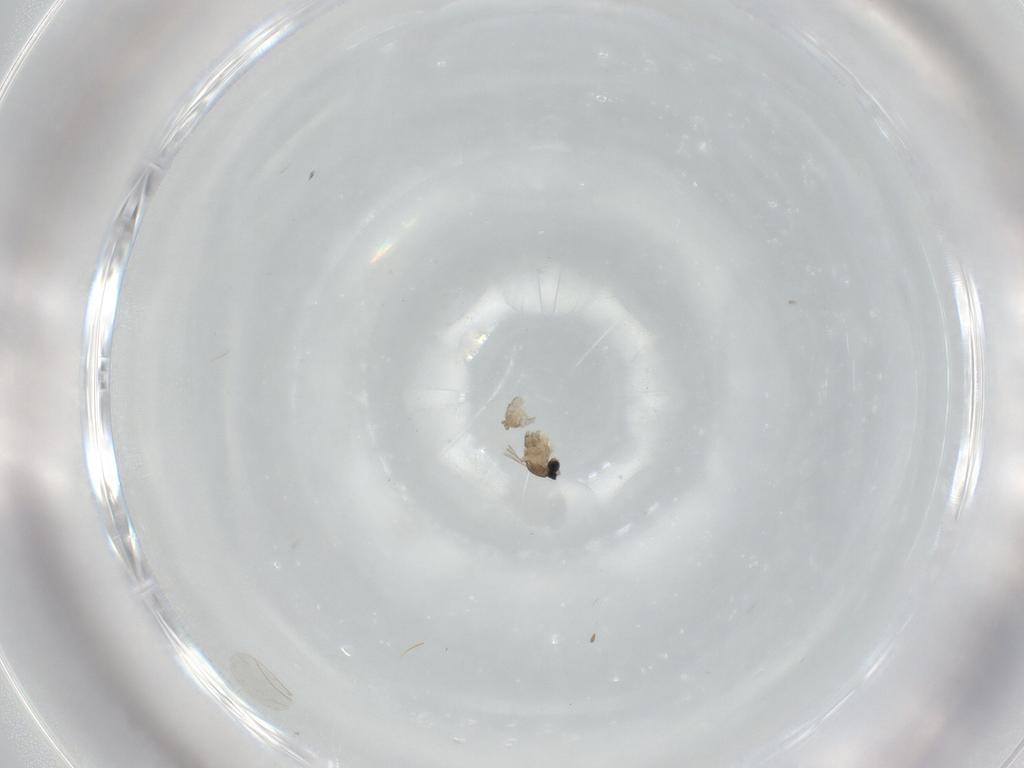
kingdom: Animalia
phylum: Arthropoda
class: Insecta
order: Diptera
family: Cecidomyiidae
